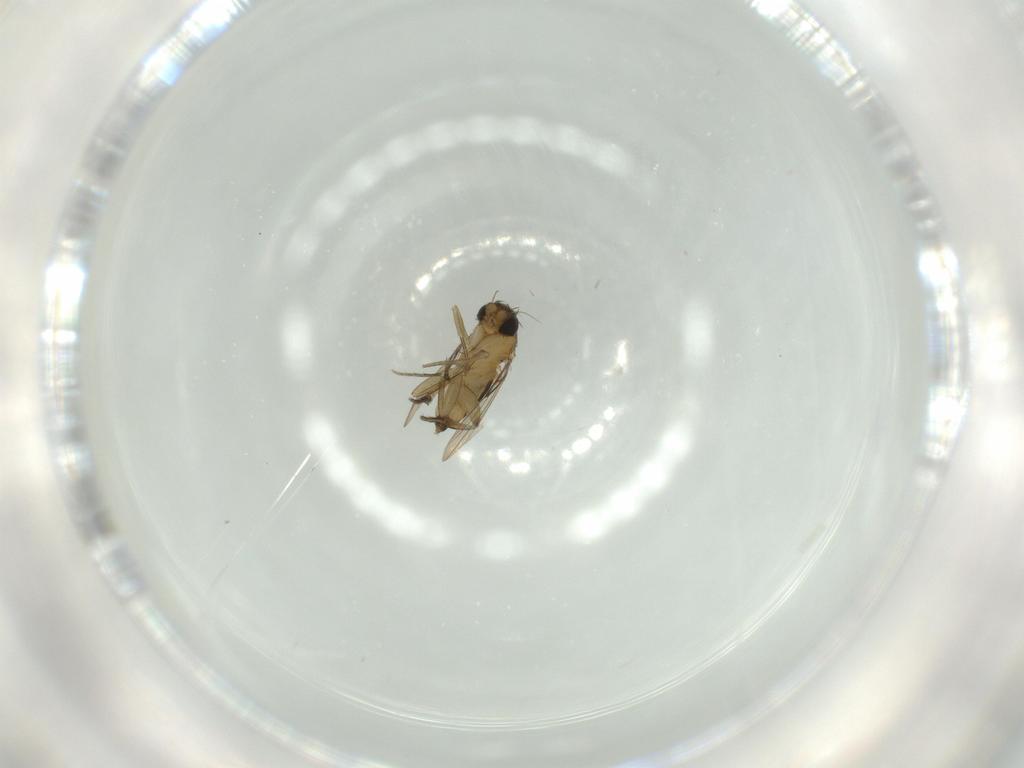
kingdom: Animalia
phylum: Arthropoda
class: Insecta
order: Diptera
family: Phoridae
